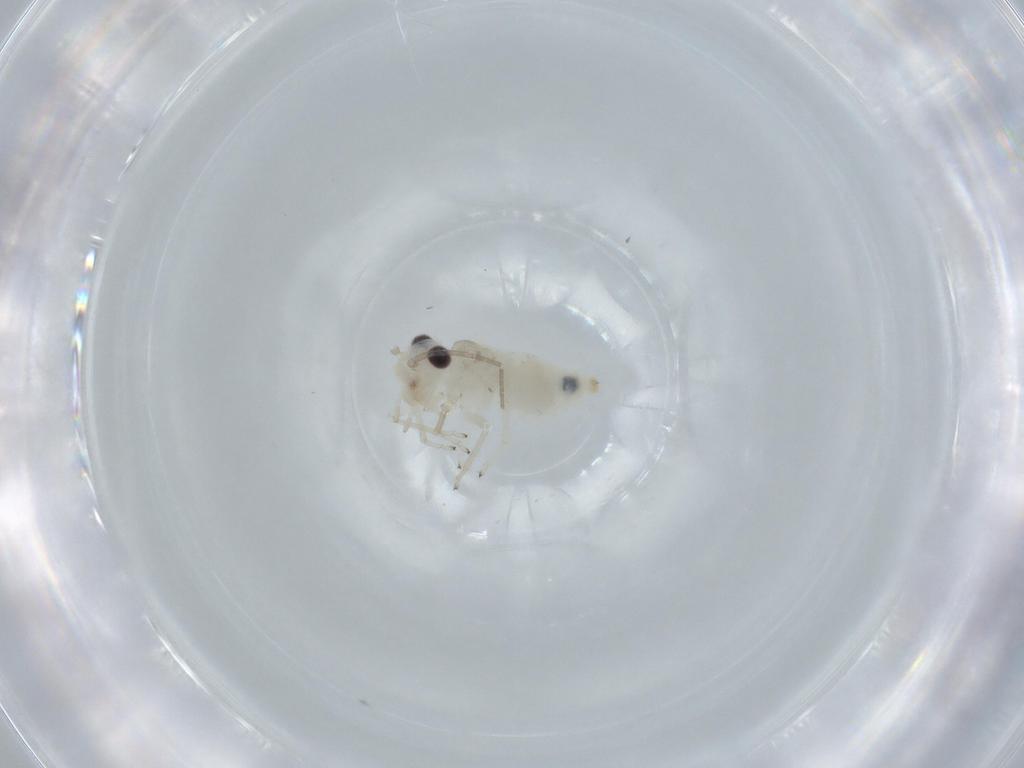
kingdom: Animalia
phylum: Arthropoda
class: Insecta
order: Psocodea
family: Caeciliusidae
